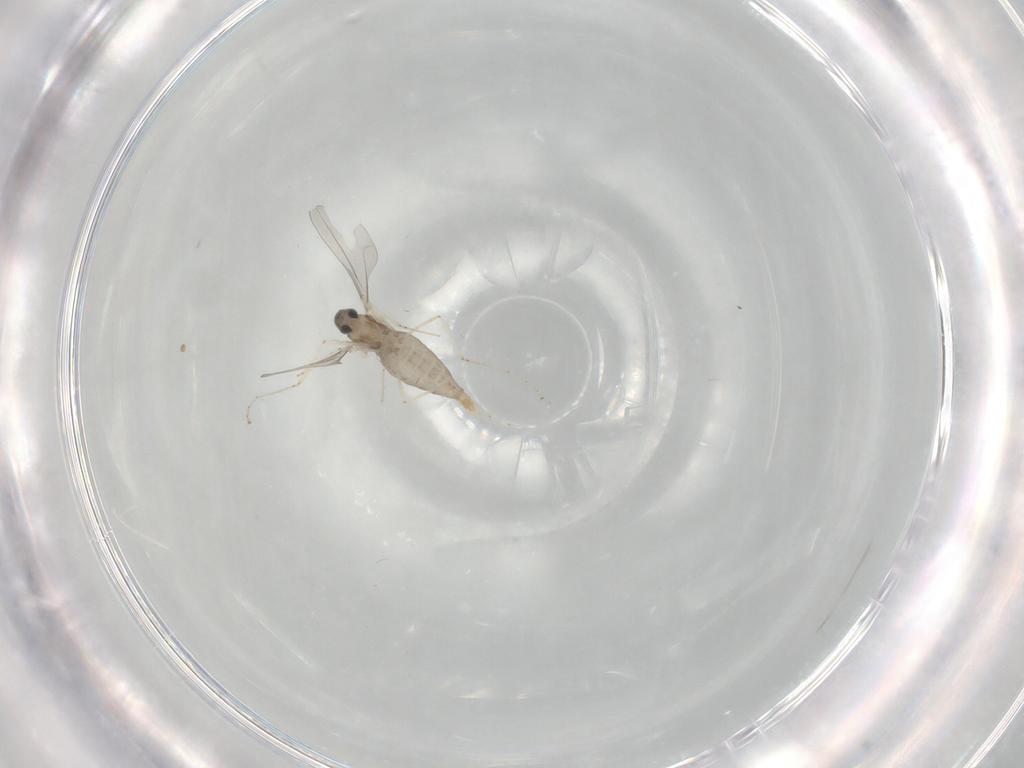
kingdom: Animalia
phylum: Arthropoda
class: Insecta
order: Diptera
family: Cecidomyiidae
